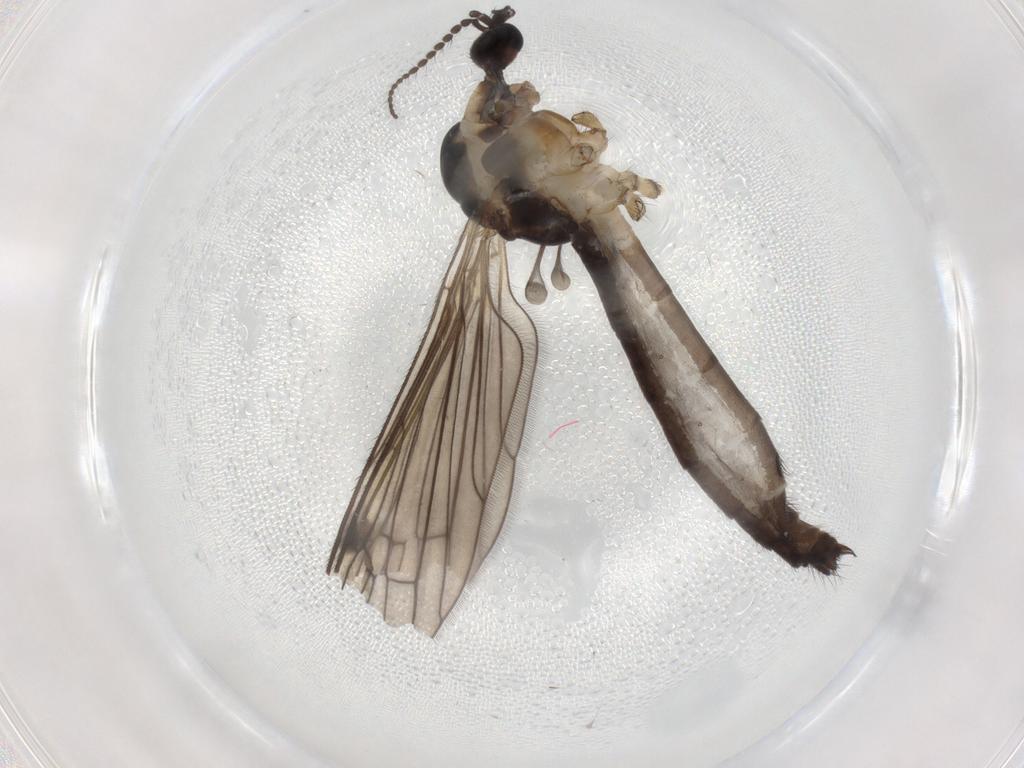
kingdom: Animalia
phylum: Arthropoda
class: Insecta
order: Diptera
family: Limoniidae
